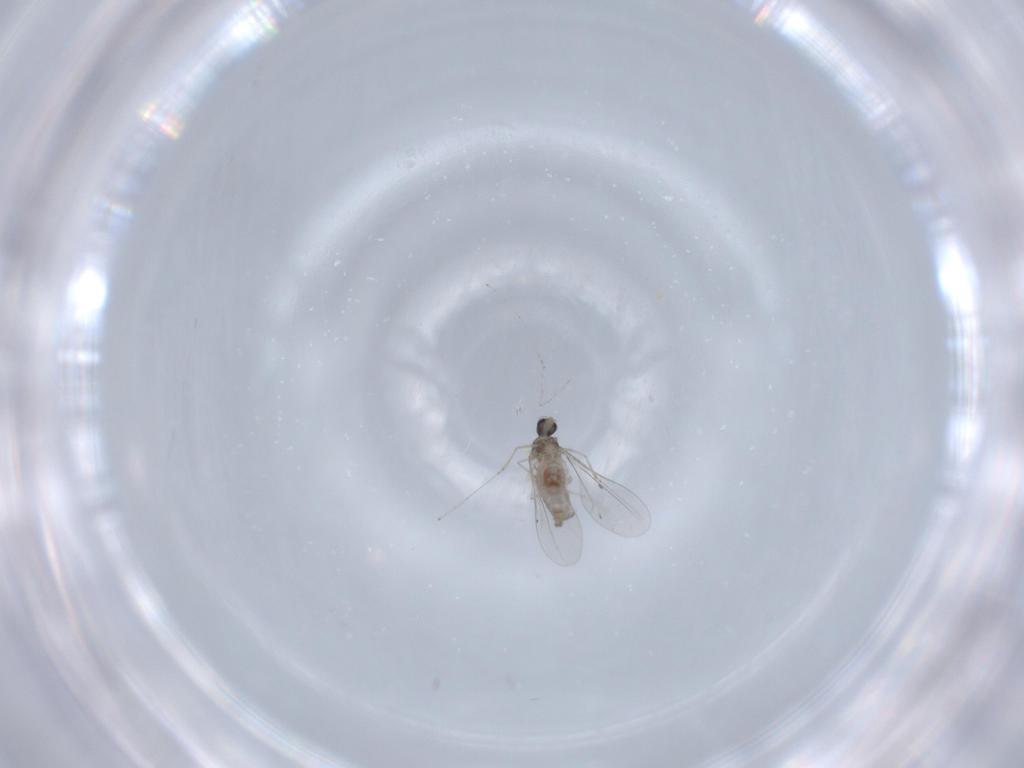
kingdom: Animalia
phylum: Arthropoda
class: Insecta
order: Diptera
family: Cecidomyiidae
